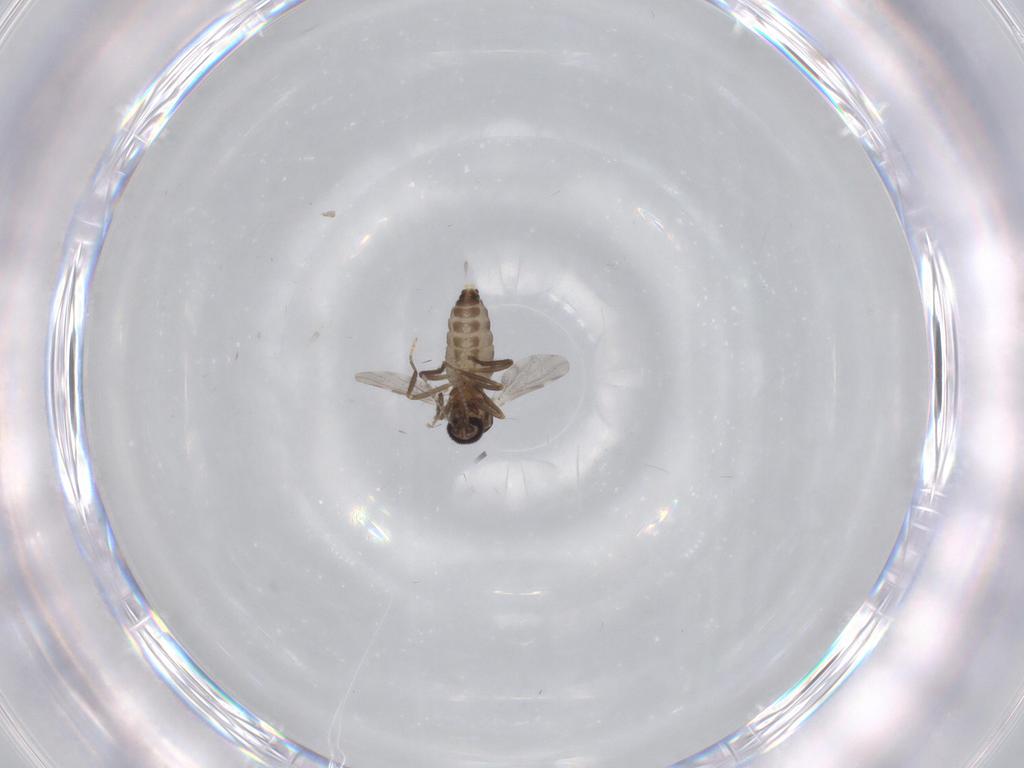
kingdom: Animalia
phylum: Arthropoda
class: Insecta
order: Diptera
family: Ceratopogonidae
